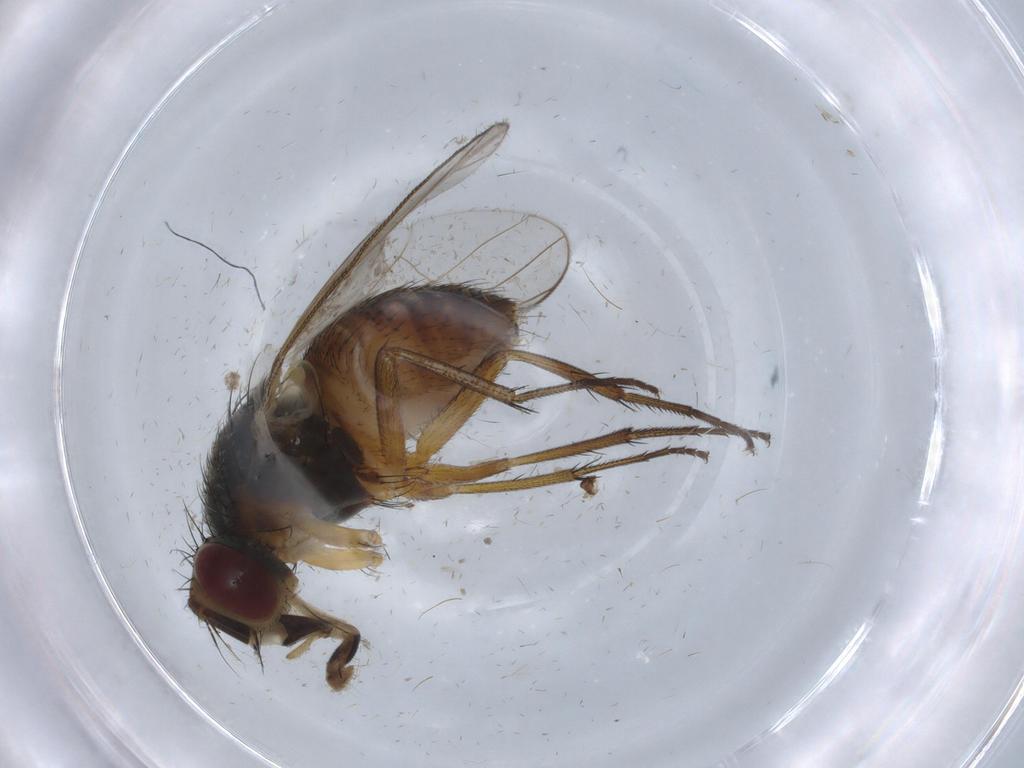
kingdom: Animalia
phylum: Arthropoda
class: Insecta
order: Diptera
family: Muscidae
